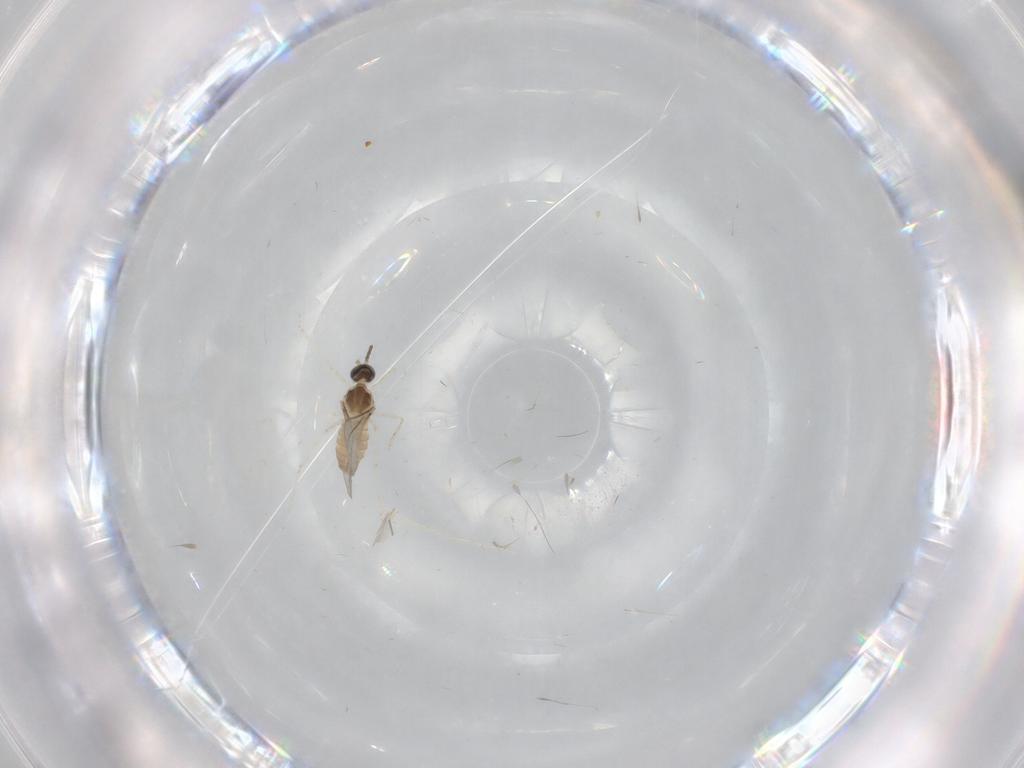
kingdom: Animalia
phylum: Arthropoda
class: Insecta
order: Diptera
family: Cecidomyiidae
